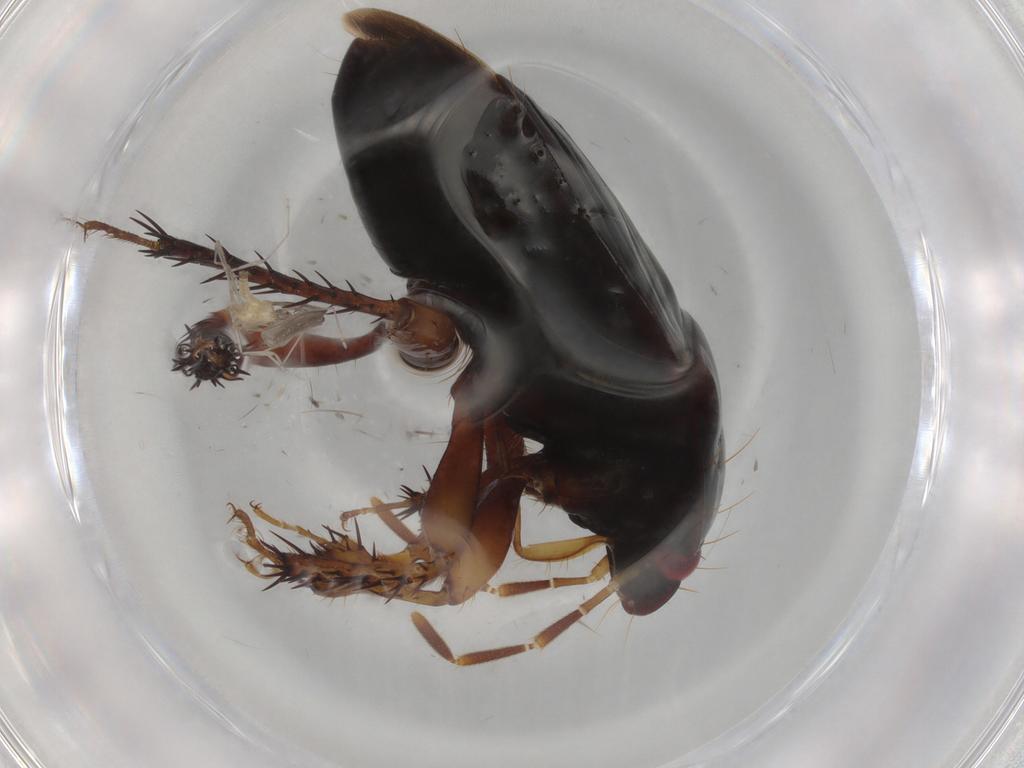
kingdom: Animalia
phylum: Arthropoda
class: Insecta
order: Hemiptera
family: Cydnidae
